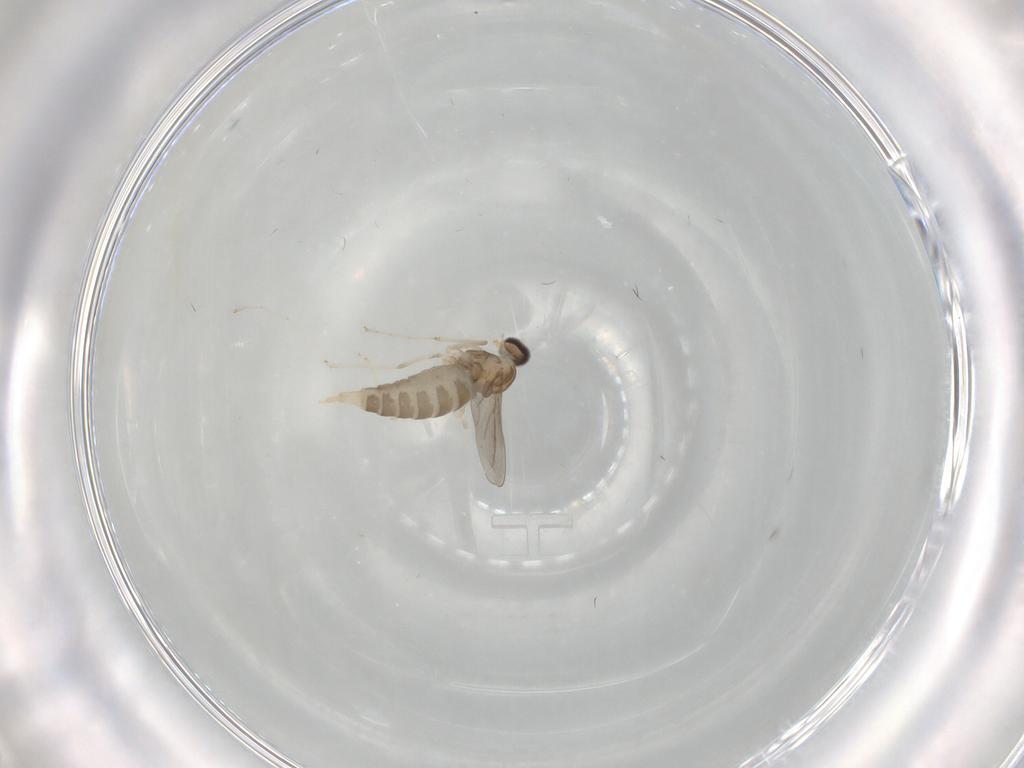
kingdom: Animalia
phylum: Arthropoda
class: Insecta
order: Diptera
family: Cecidomyiidae
